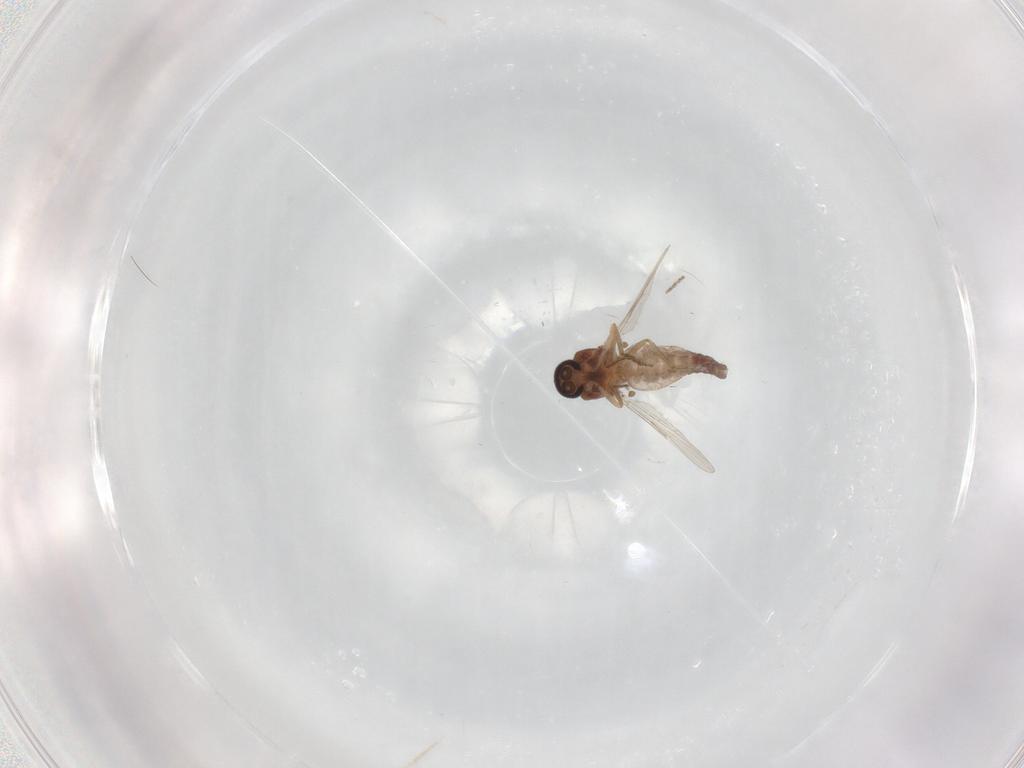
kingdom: Animalia
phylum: Arthropoda
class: Insecta
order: Diptera
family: Ceratopogonidae
